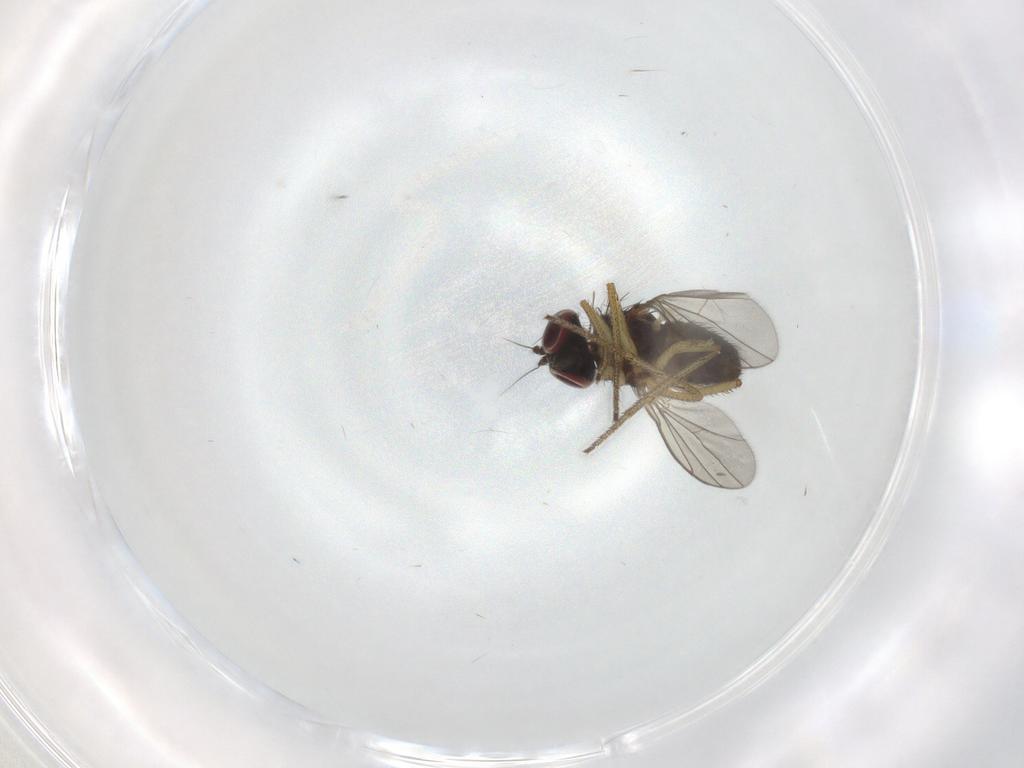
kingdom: Animalia
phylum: Arthropoda
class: Insecta
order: Diptera
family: Dolichopodidae
